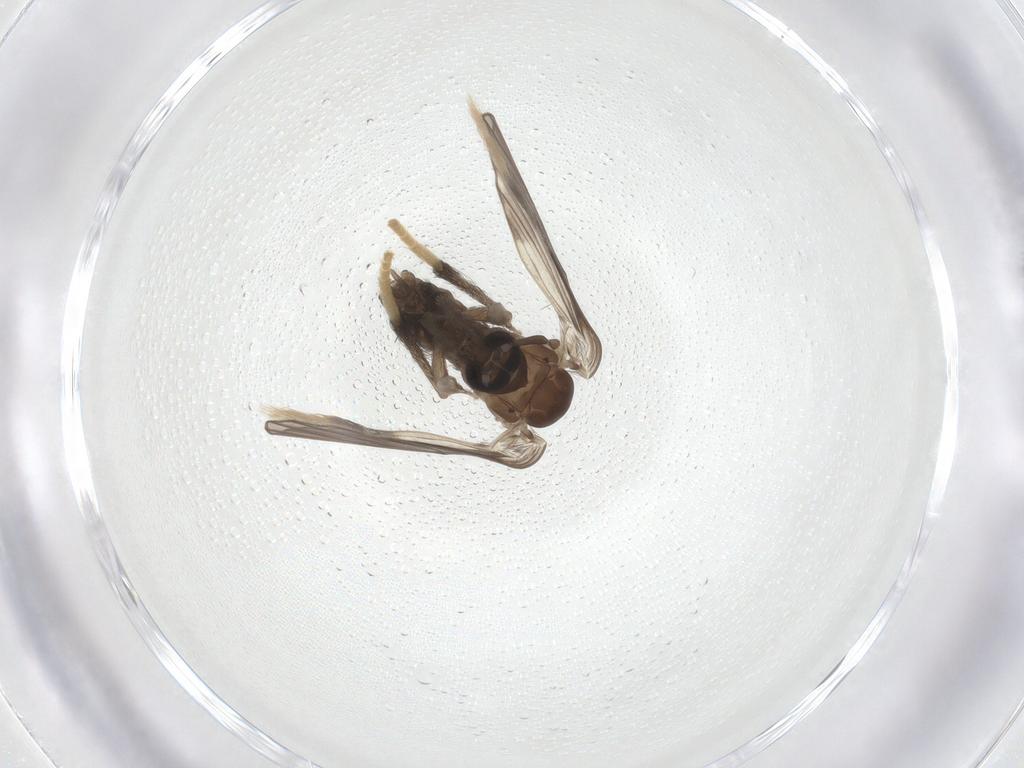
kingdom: Animalia
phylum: Arthropoda
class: Insecta
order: Diptera
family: Psychodidae
